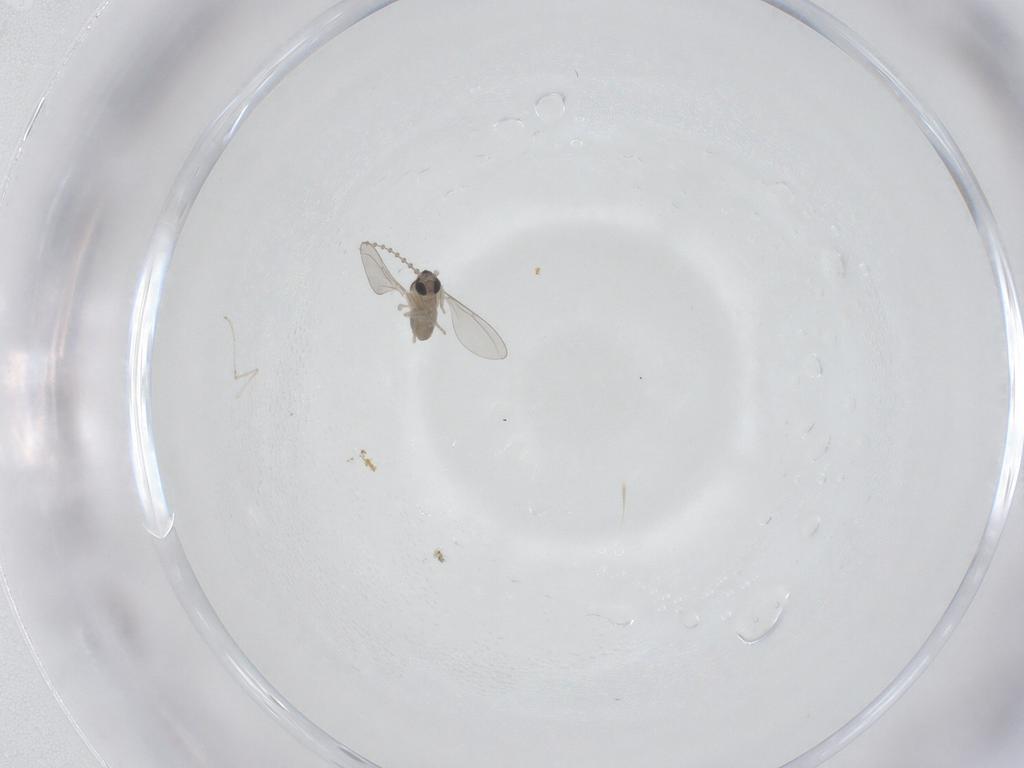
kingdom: Animalia
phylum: Arthropoda
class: Insecta
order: Diptera
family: Cecidomyiidae
